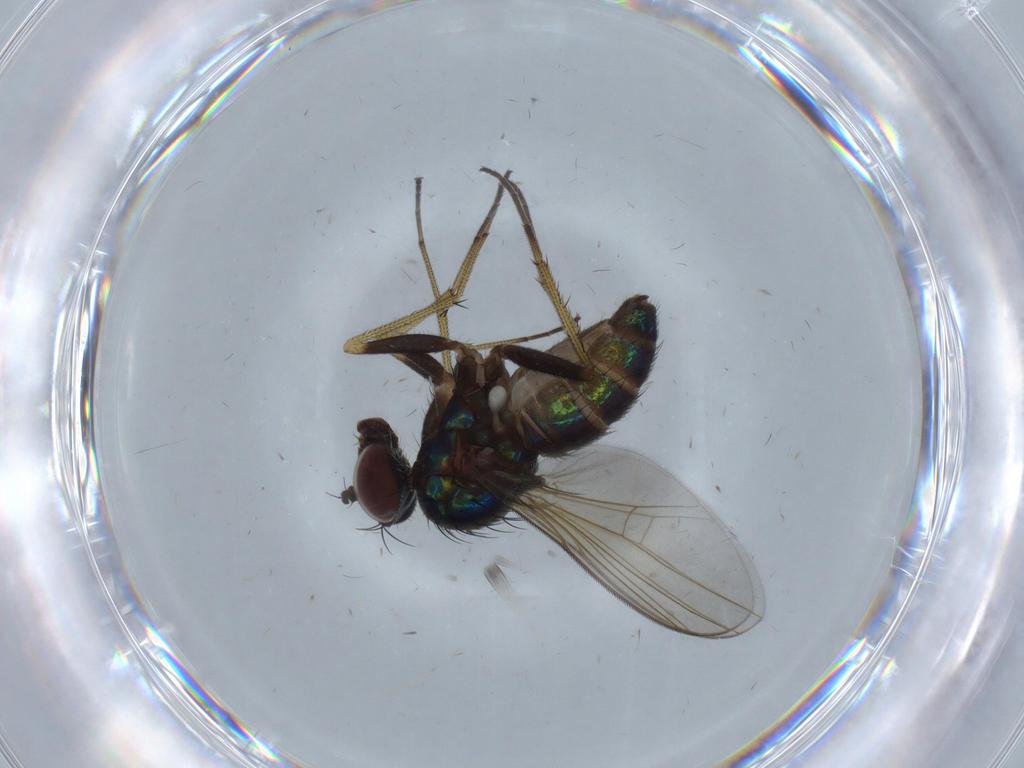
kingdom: Animalia
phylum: Arthropoda
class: Insecta
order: Diptera
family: Dolichopodidae
